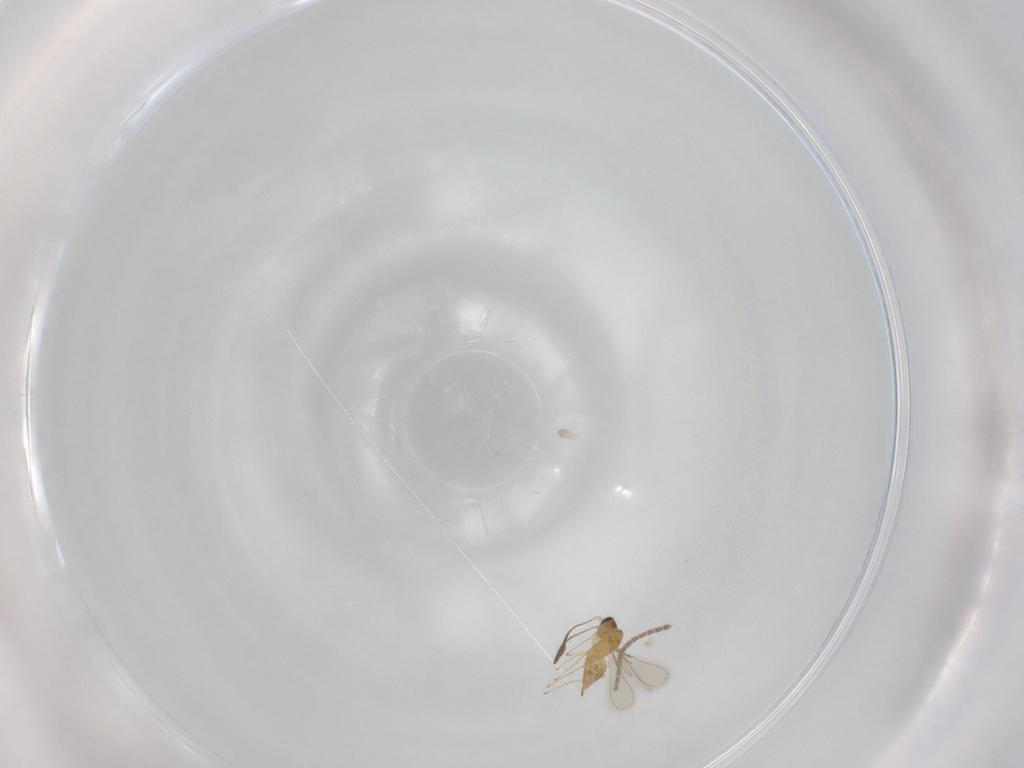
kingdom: Animalia
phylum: Arthropoda
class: Insecta
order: Hymenoptera
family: Mymaridae
